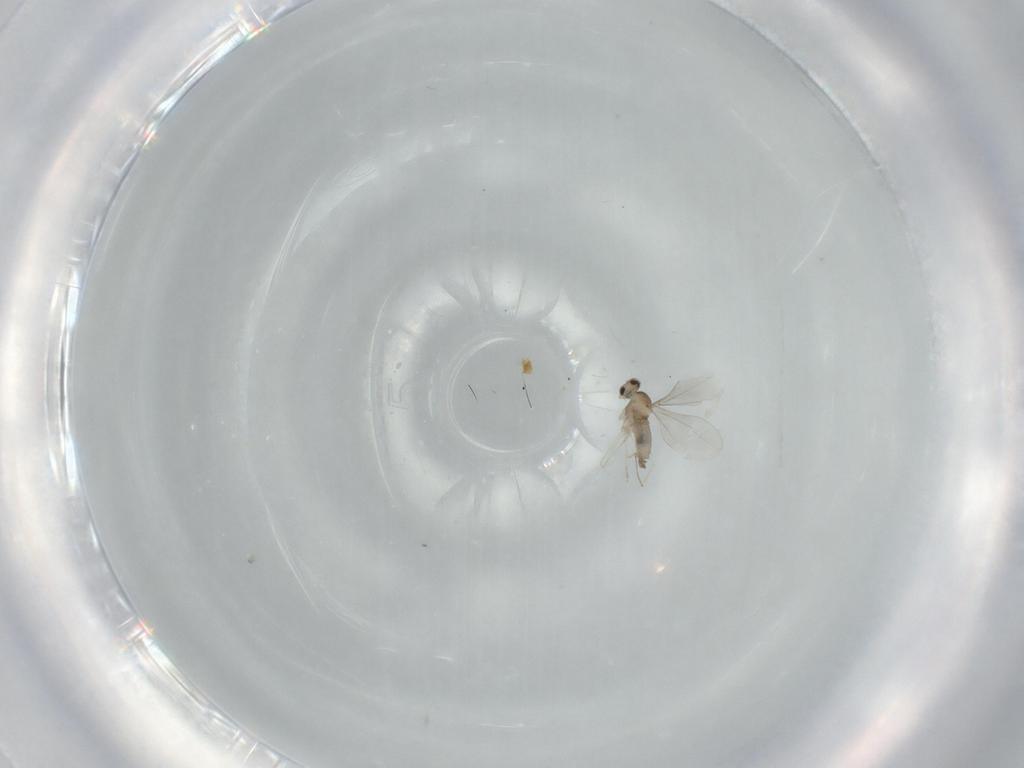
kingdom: Animalia
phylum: Arthropoda
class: Insecta
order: Diptera
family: Cecidomyiidae
